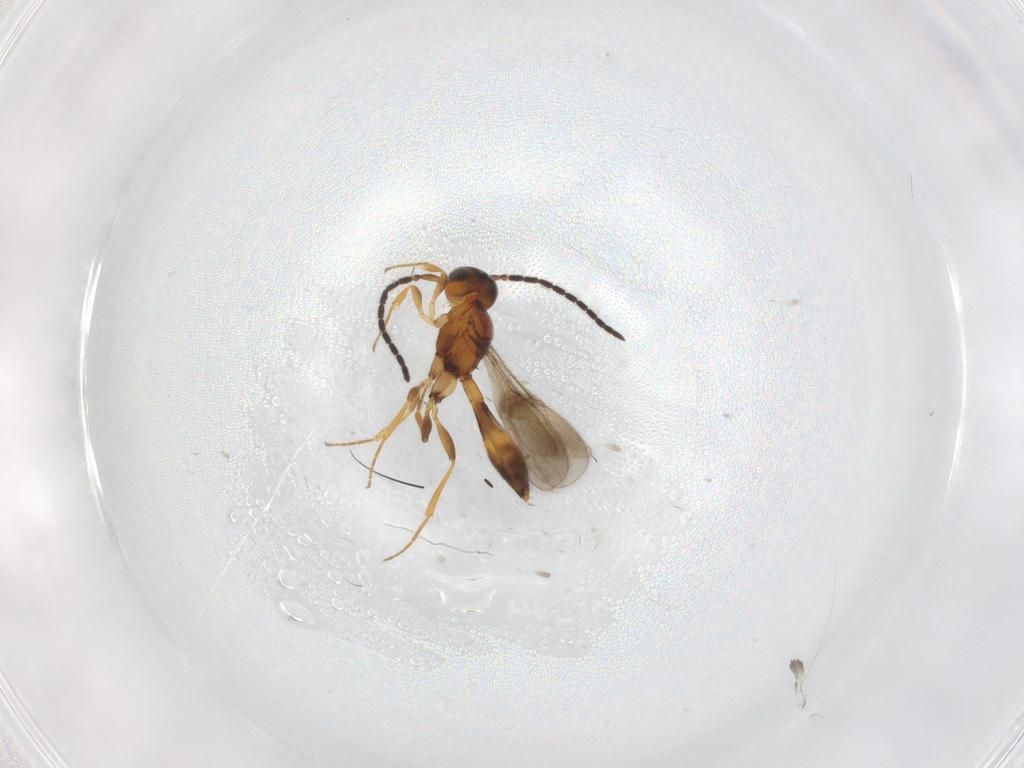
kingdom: Animalia
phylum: Arthropoda
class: Insecta
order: Hymenoptera
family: Scelionidae
